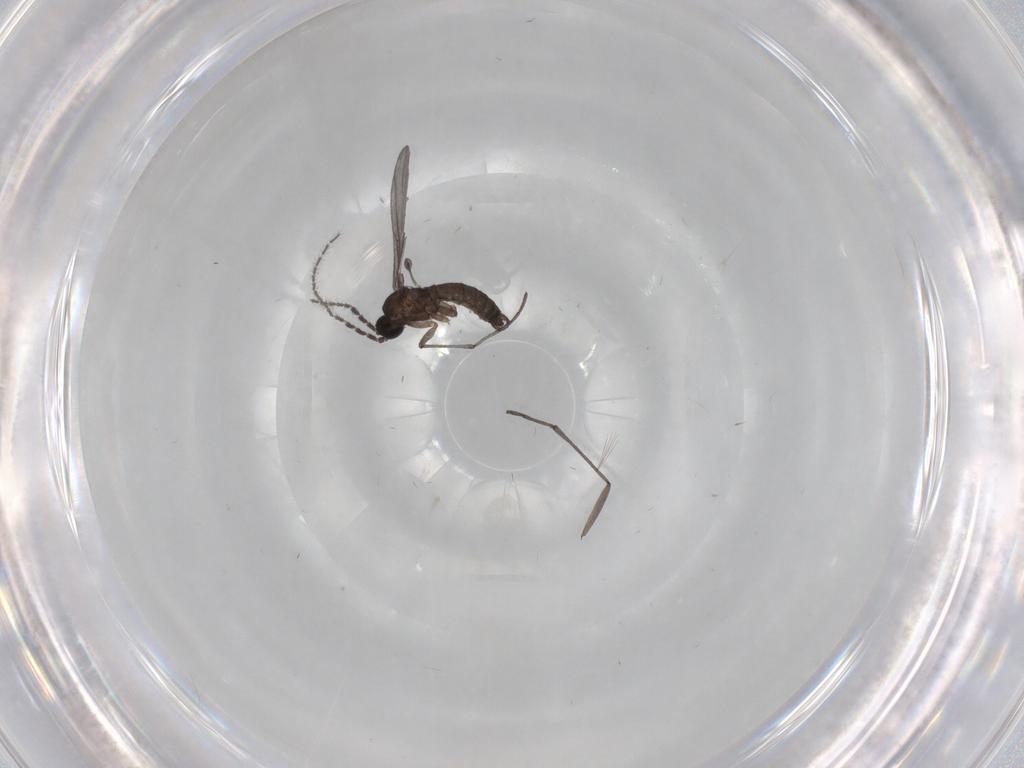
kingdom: Animalia
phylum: Arthropoda
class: Insecta
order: Diptera
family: Sciaridae
